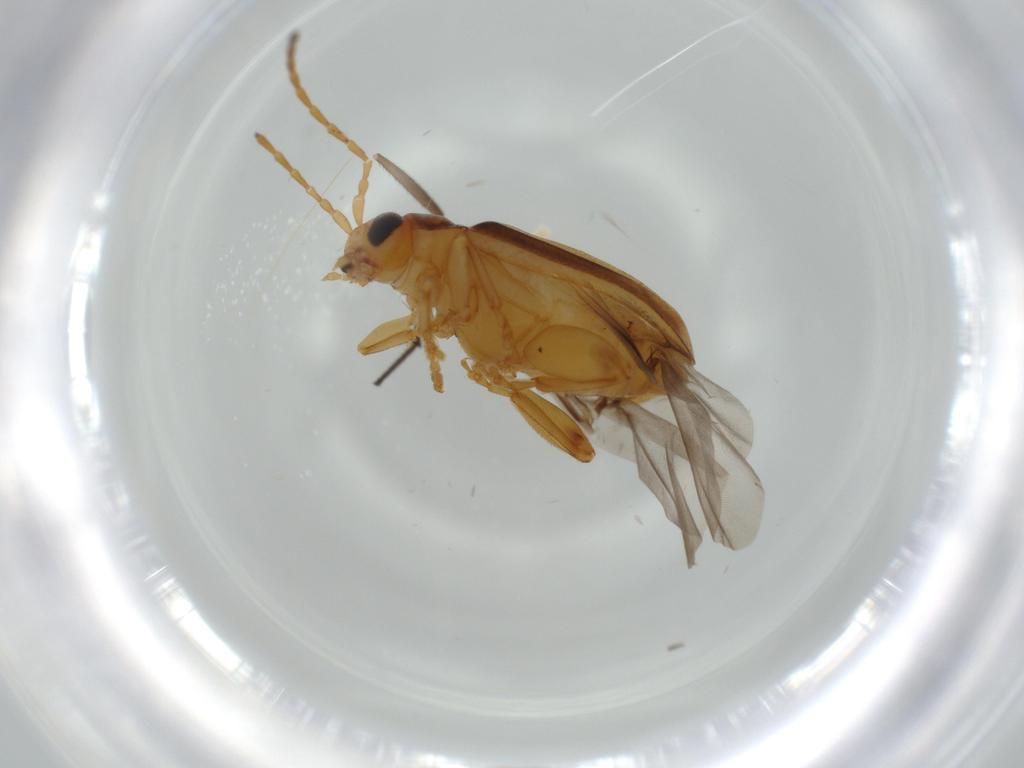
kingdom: Animalia
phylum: Arthropoda
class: Insecta
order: Coleoptera
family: Chrysomelidae
